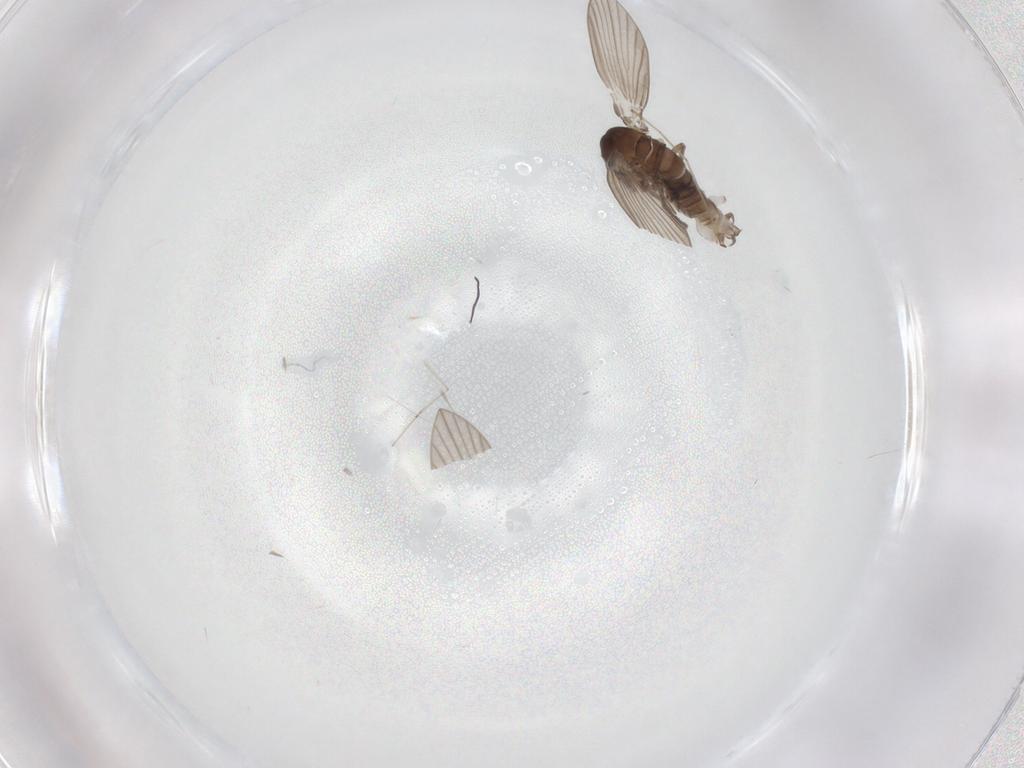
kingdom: Animalia
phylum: Arthropoda
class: Insecta
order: Diptera
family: Psychodidae
